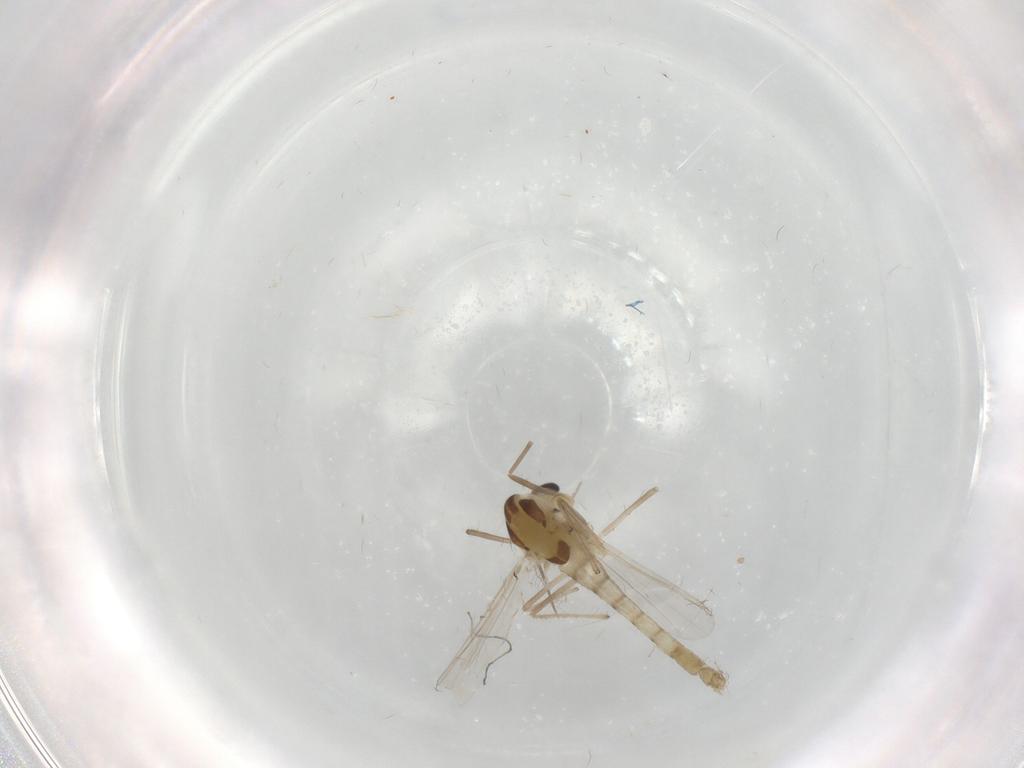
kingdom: Animalia
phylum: Arthropoda
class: Insecta
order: Diptera
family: Chironomidae
